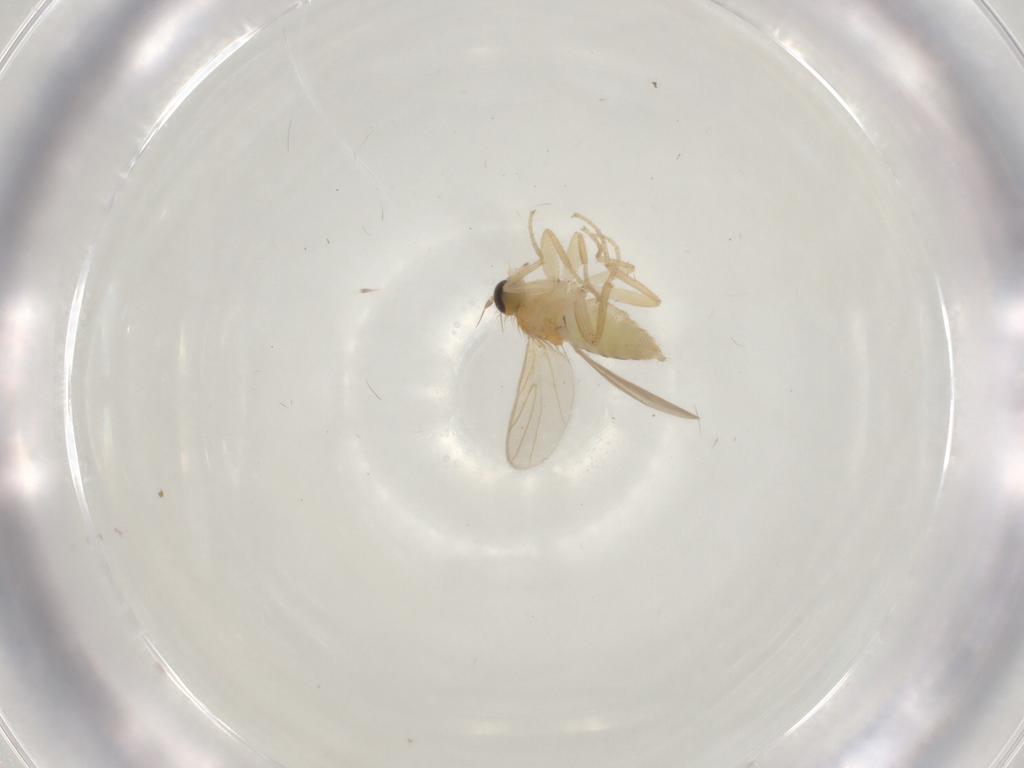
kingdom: Animalia
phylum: Arthropoda
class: Insecta
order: Diptera
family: Hybotidae
